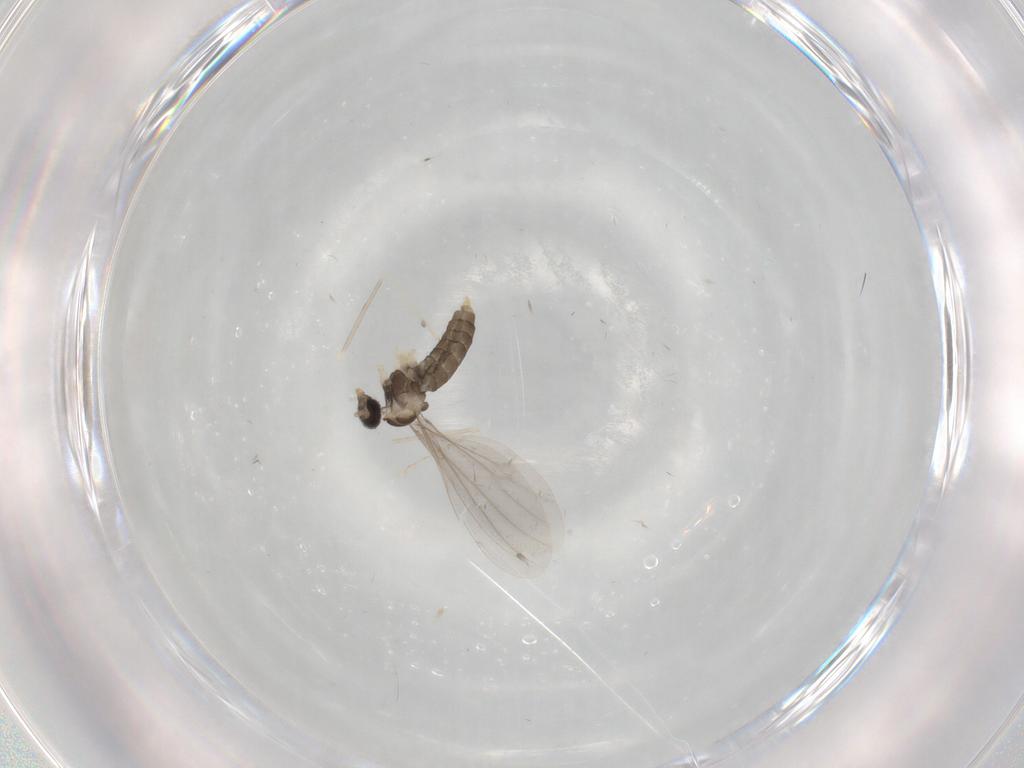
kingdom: Animalia
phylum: Arthropoda
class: Insecta
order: Diptera
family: Cecidomyiidae
